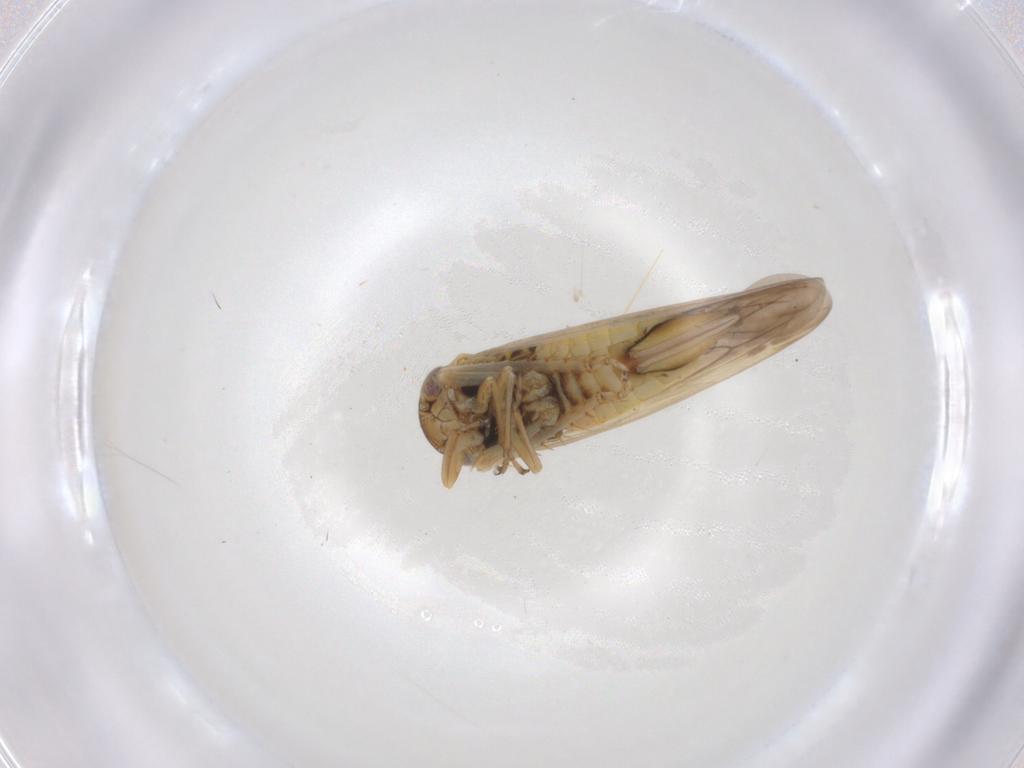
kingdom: Animalia
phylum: Arthropoda
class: Insecta
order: Hemiptera
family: Cicadellidae
